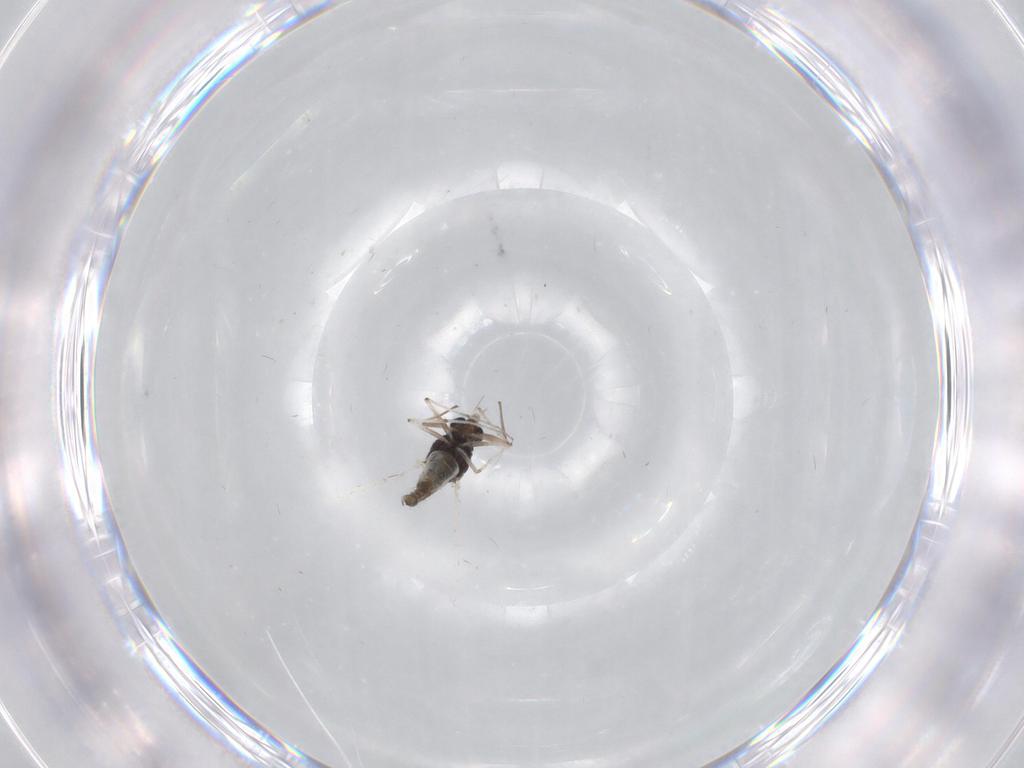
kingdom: Animalia
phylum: Arthropoda
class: Insecta
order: Diptera
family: Chironomidae
